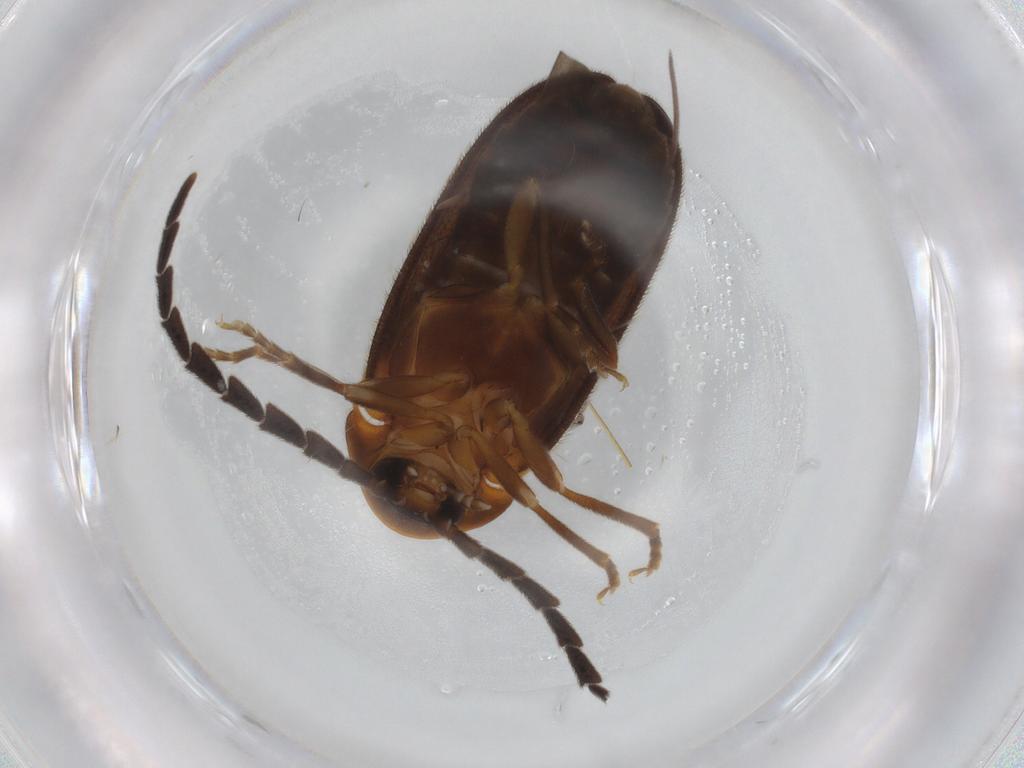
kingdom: Animalia
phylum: Arthropoda
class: Insecta
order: Coleoptera
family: Lampyridae
